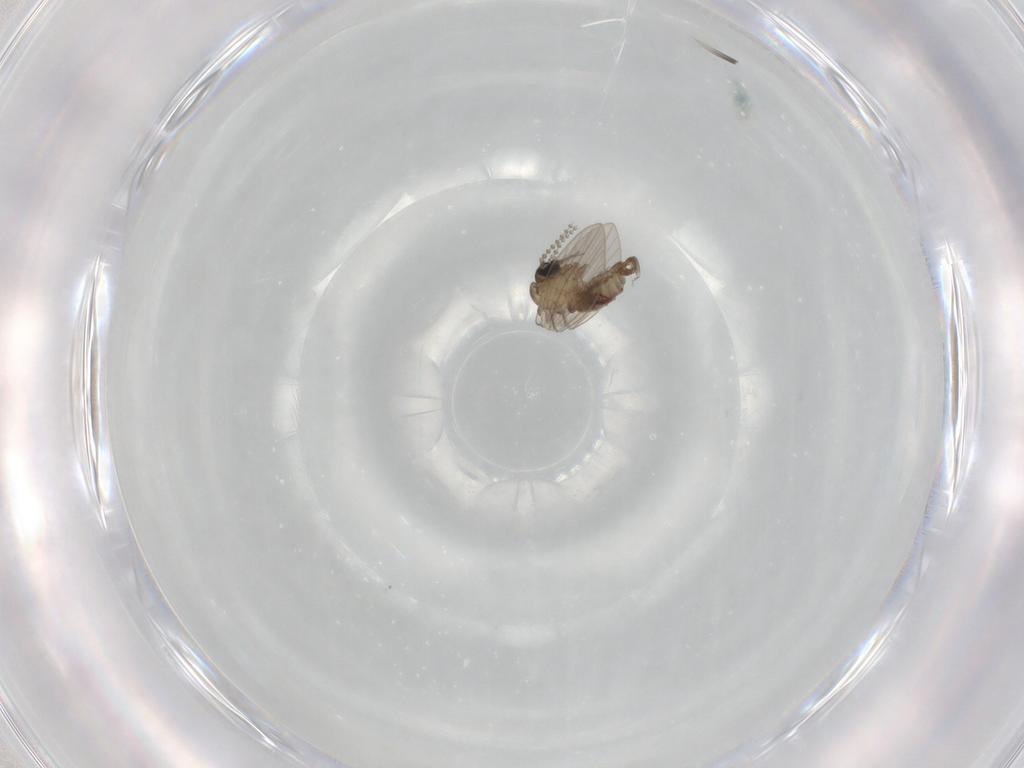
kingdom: Animalia
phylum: Arthropoda
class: Insecta
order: Diptera
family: Psychodidae
